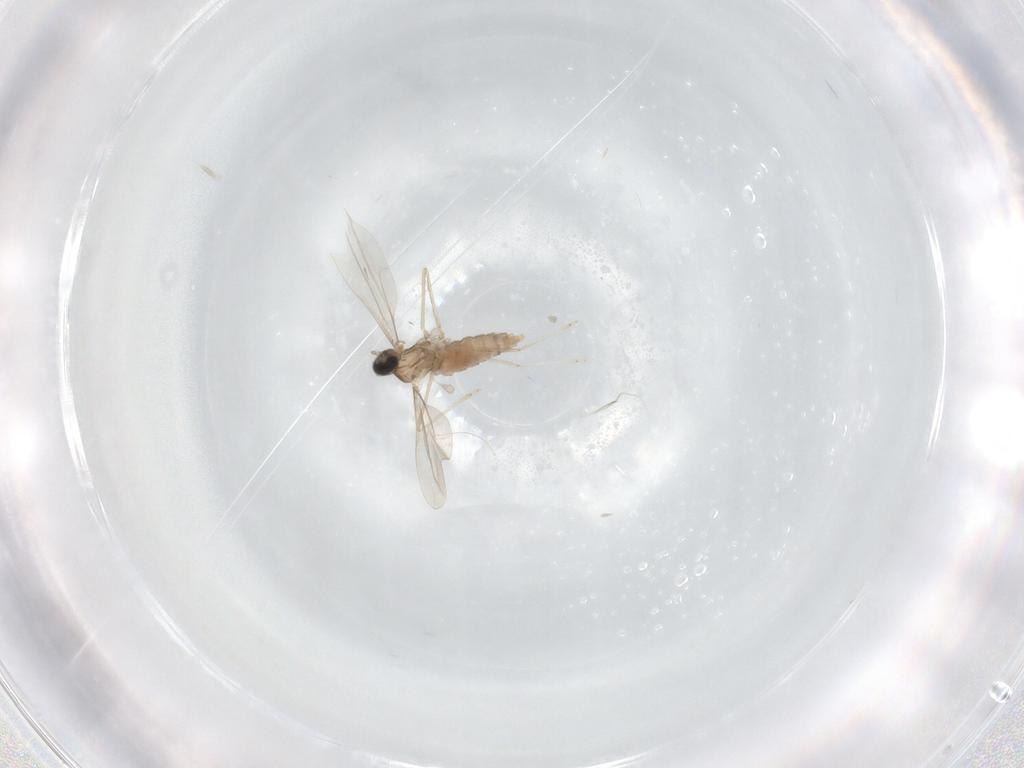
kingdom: Animalia
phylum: Arthropoda
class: Insecta
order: Diptera
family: Cecidomyiidae
